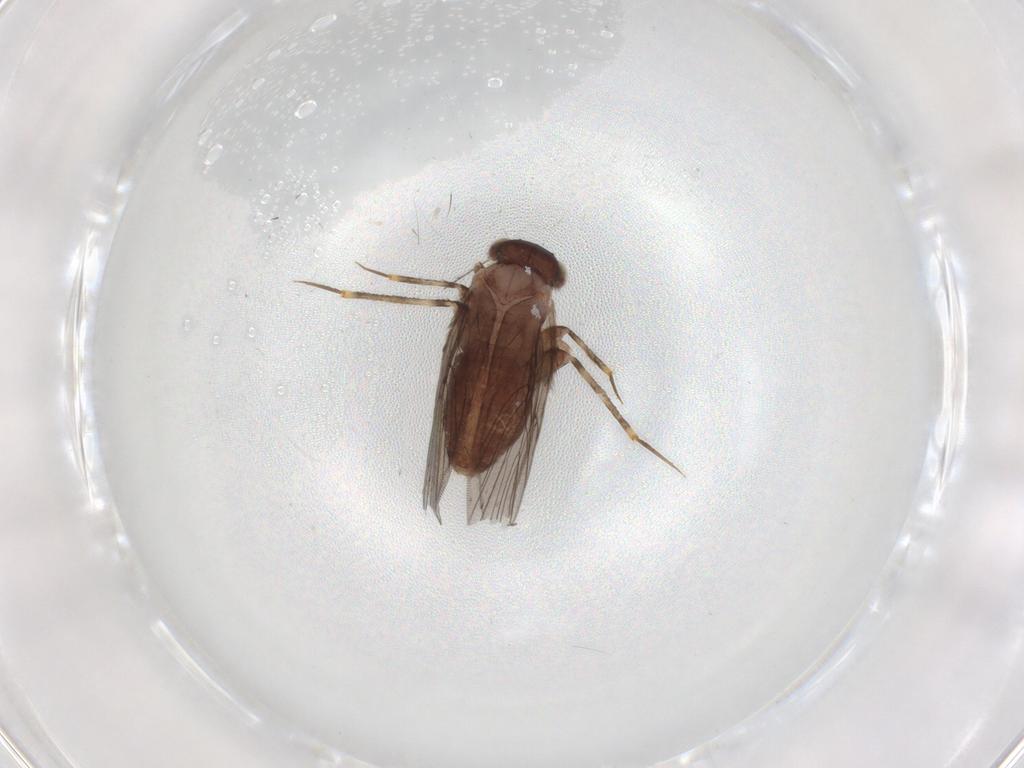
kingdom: Animalia
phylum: Arthropoda
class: Insecta
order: Psocodea
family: Lepidopsocidae
